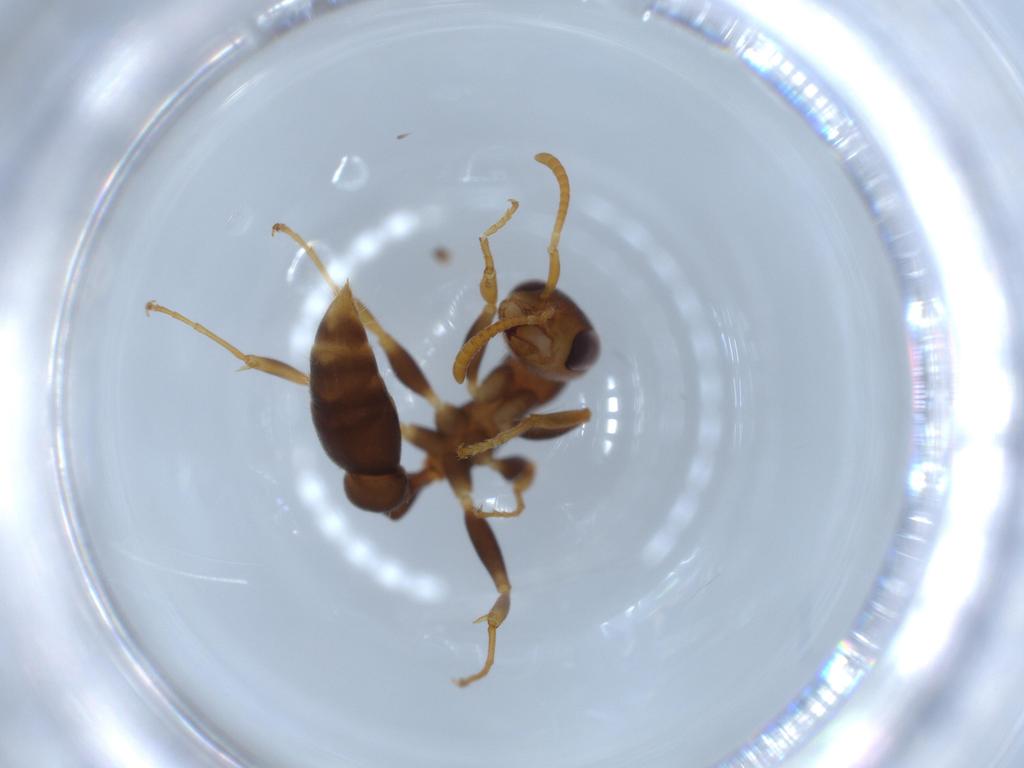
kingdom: Animalia
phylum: Arthropoda
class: Insecta
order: Hymenoptera
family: Formicidae
